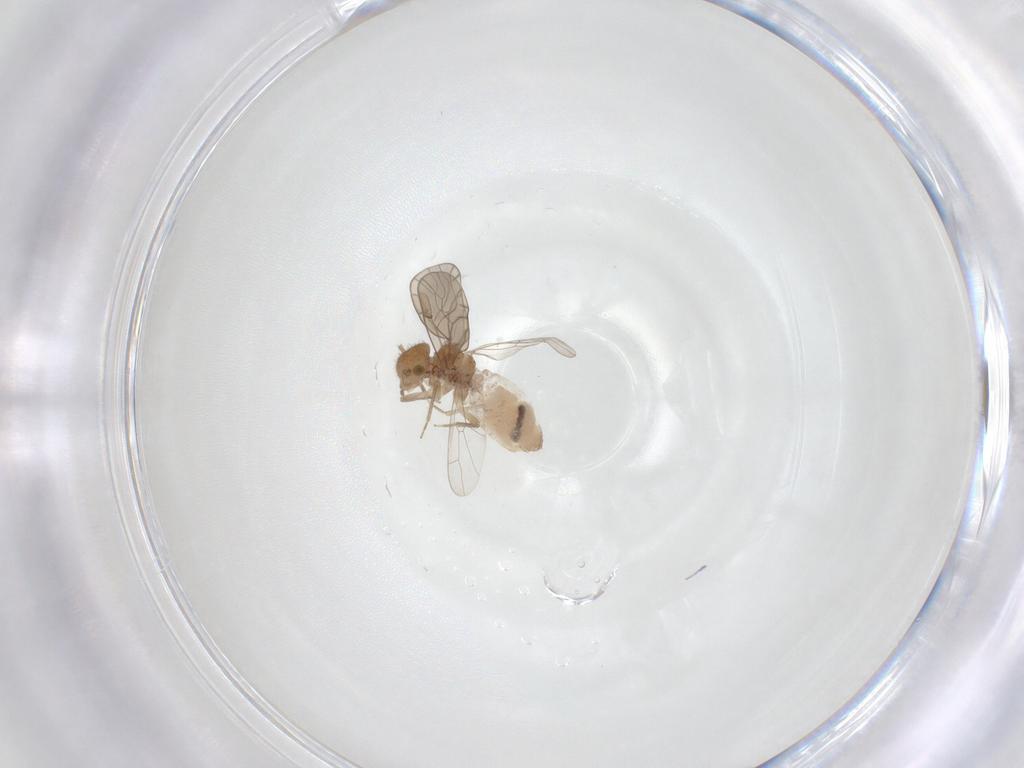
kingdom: Animalia
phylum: Arthropoda
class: Insecta
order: Psocodea
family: Ectopsocidae
